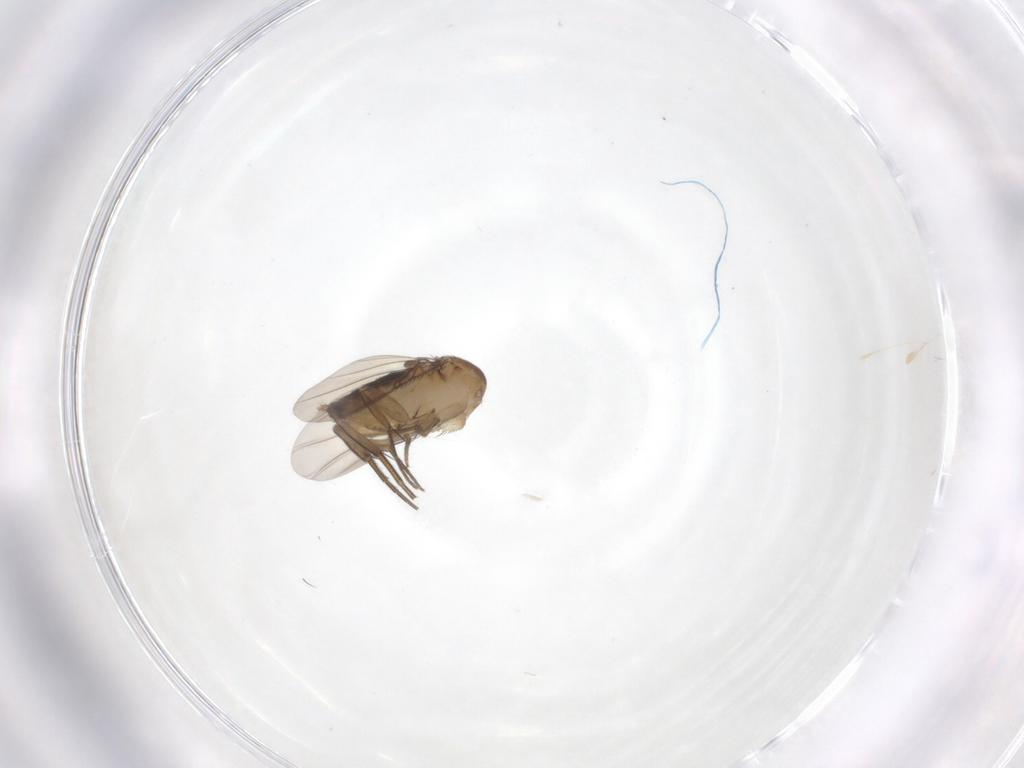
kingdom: Animalia
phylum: Arthropoda
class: Insecta
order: Diptera
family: Phoridae
